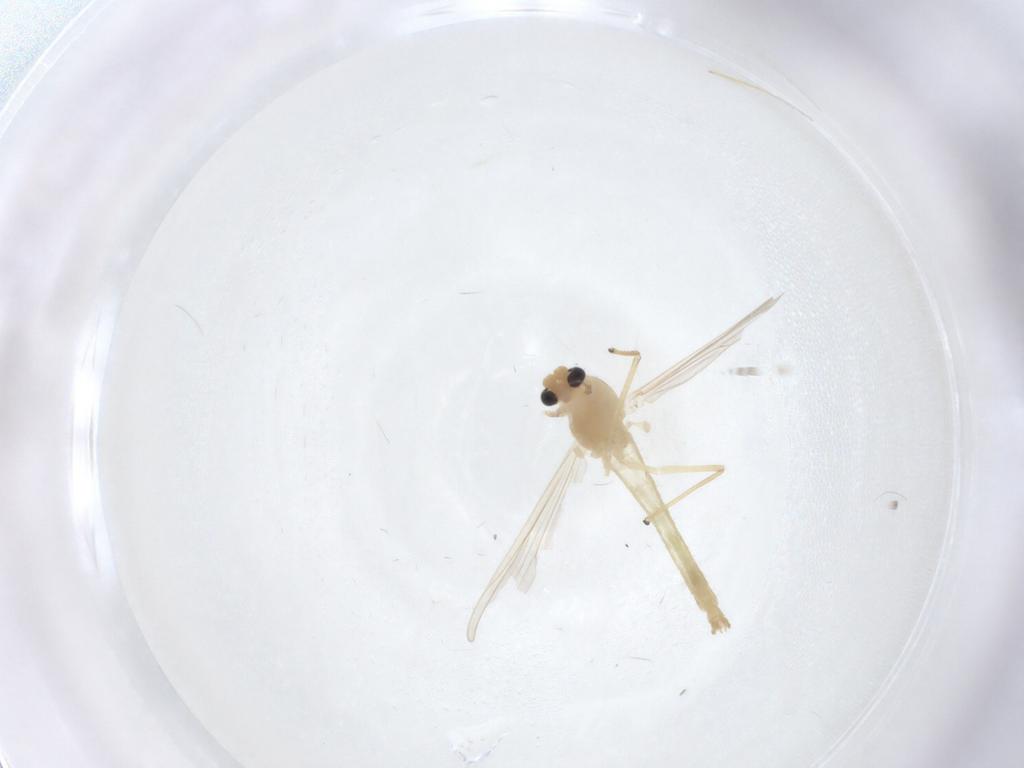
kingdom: Animalia
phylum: Arthropoda
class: Insecta
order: Diptera
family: Chironomidae
